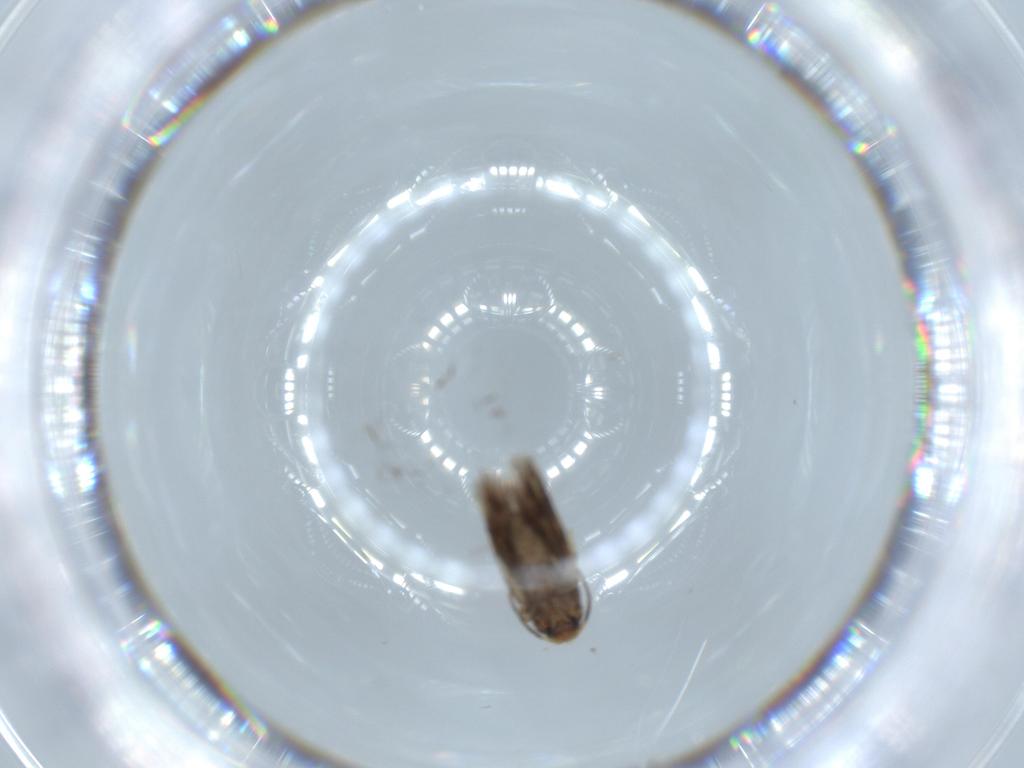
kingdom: Animalia
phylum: Arthropoda
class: Insecta
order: Lepidoptera
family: Nepticulidae
